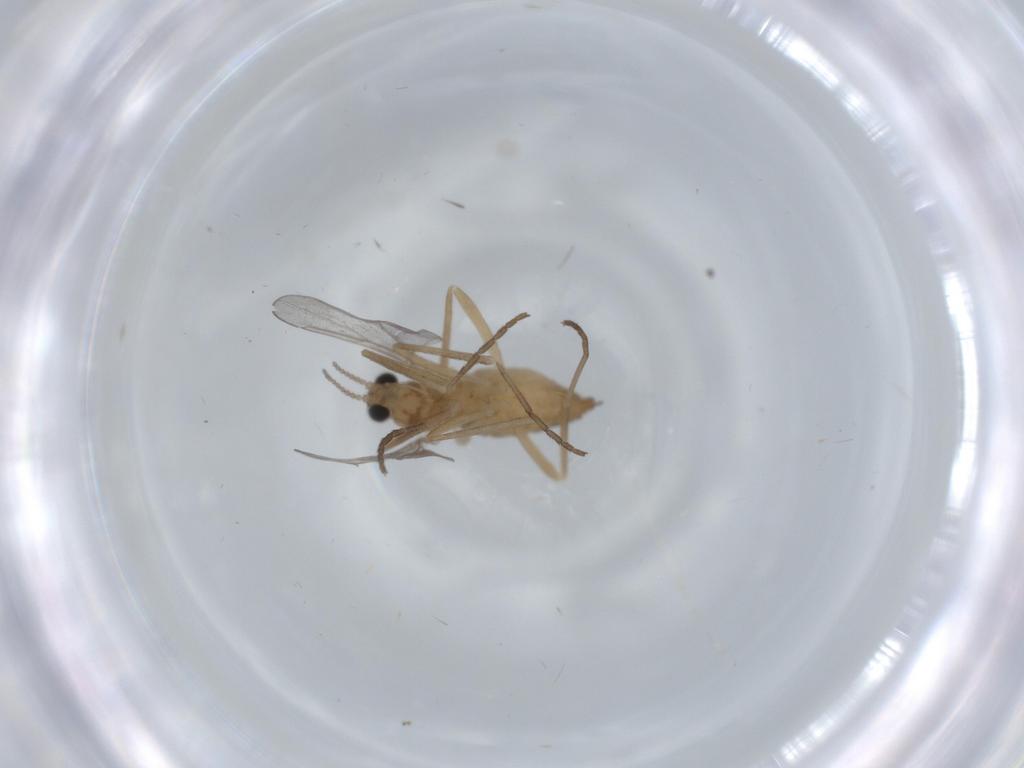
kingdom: Animalia
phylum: Arthropoda
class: Insecta
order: Diptera
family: Cecidomyiidae
